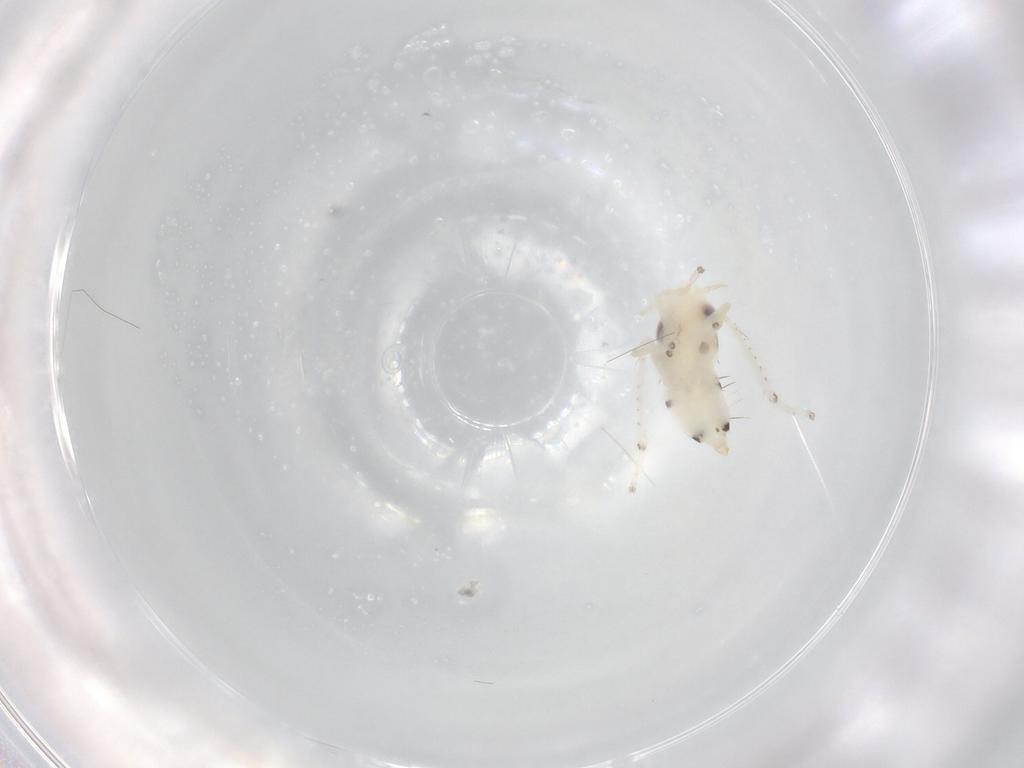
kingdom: Animalia
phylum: Arthropoda
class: Insecta
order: Hemiptera
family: Cicadellidae
